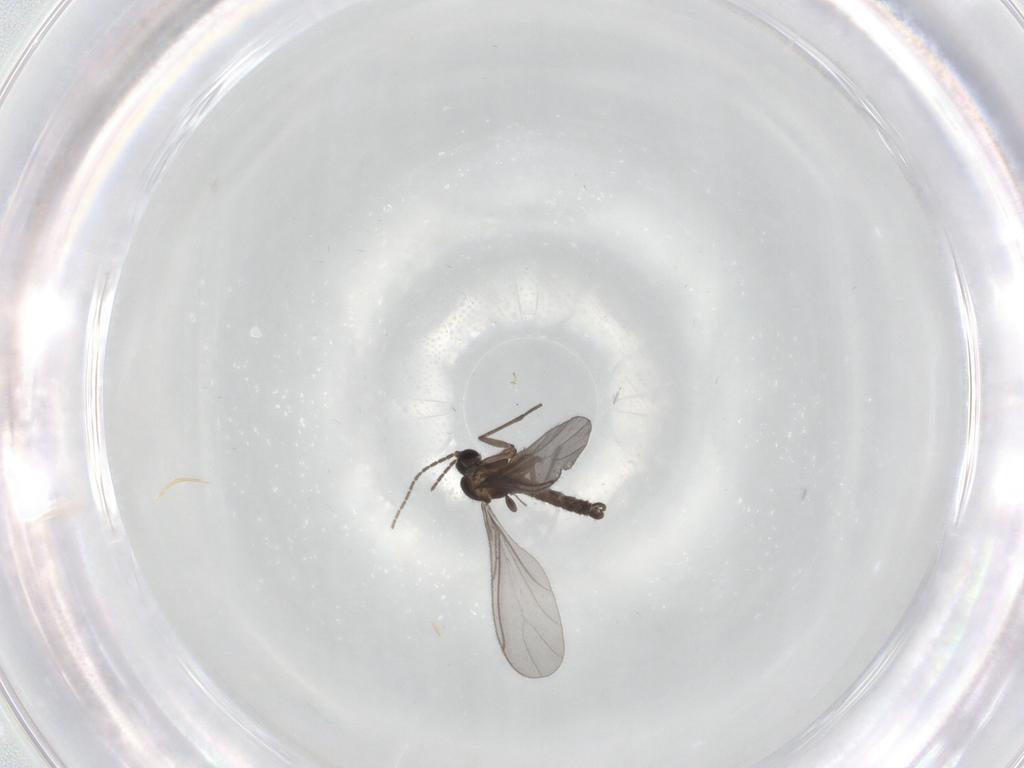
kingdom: Animalia
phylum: Arthropoda
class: Insecta
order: Diptera
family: Sciaridae
